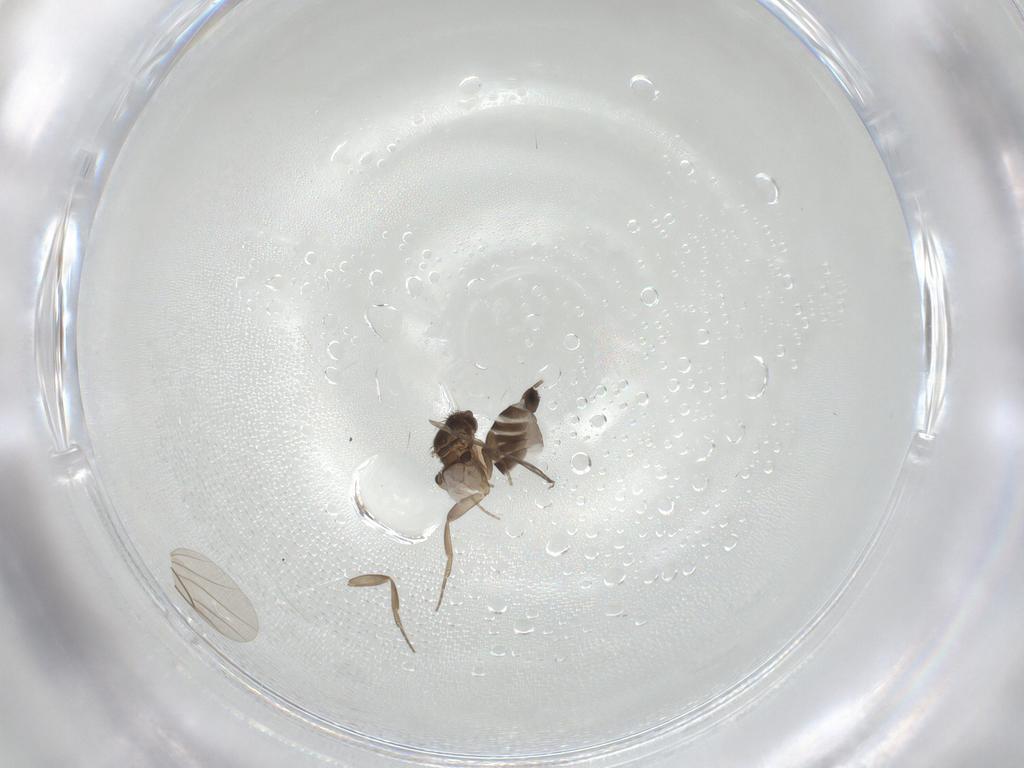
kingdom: Animalia
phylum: Arthropoda
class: Insecta
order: Diptera
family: Phoridae
